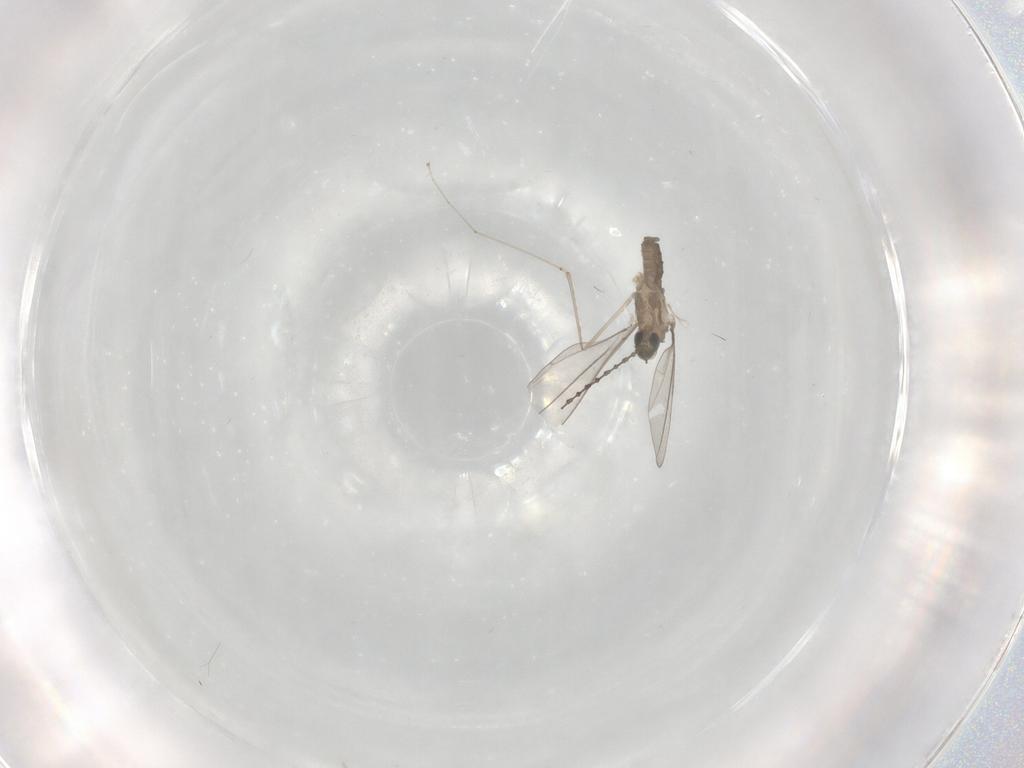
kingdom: Animalia
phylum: Arthropoda
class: Insecta
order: Diptera
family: Cecidomyiidae
